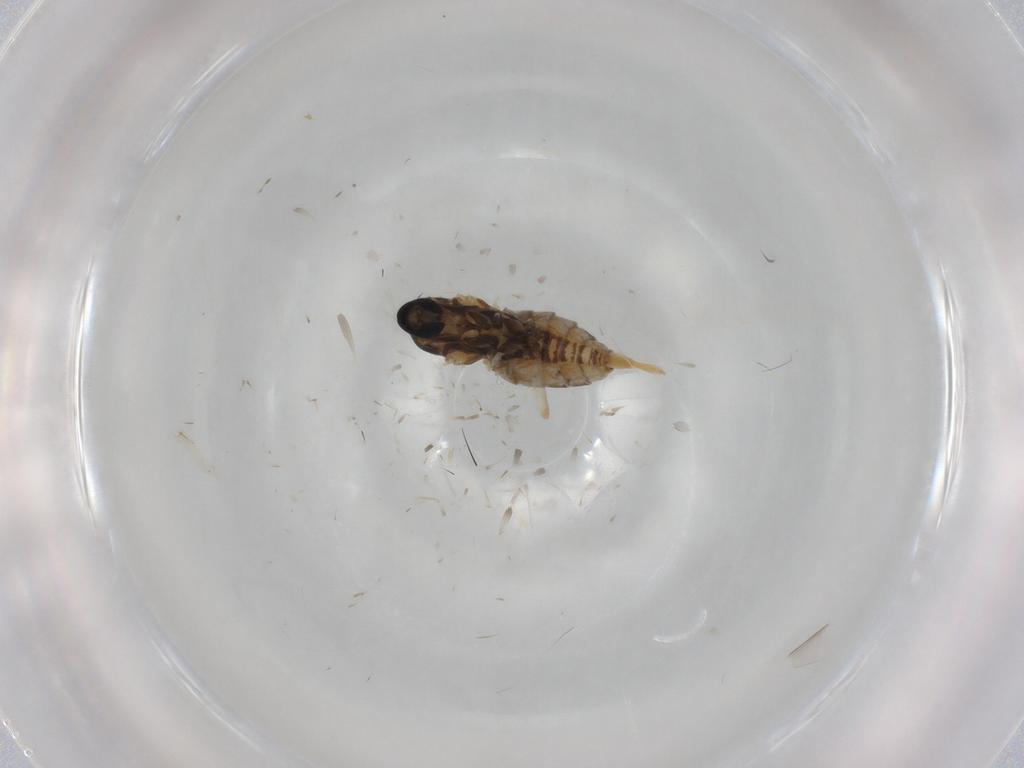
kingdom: Animalia
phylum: Arthropoda
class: Insecta
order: Diptera
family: Cecidomyiidae
